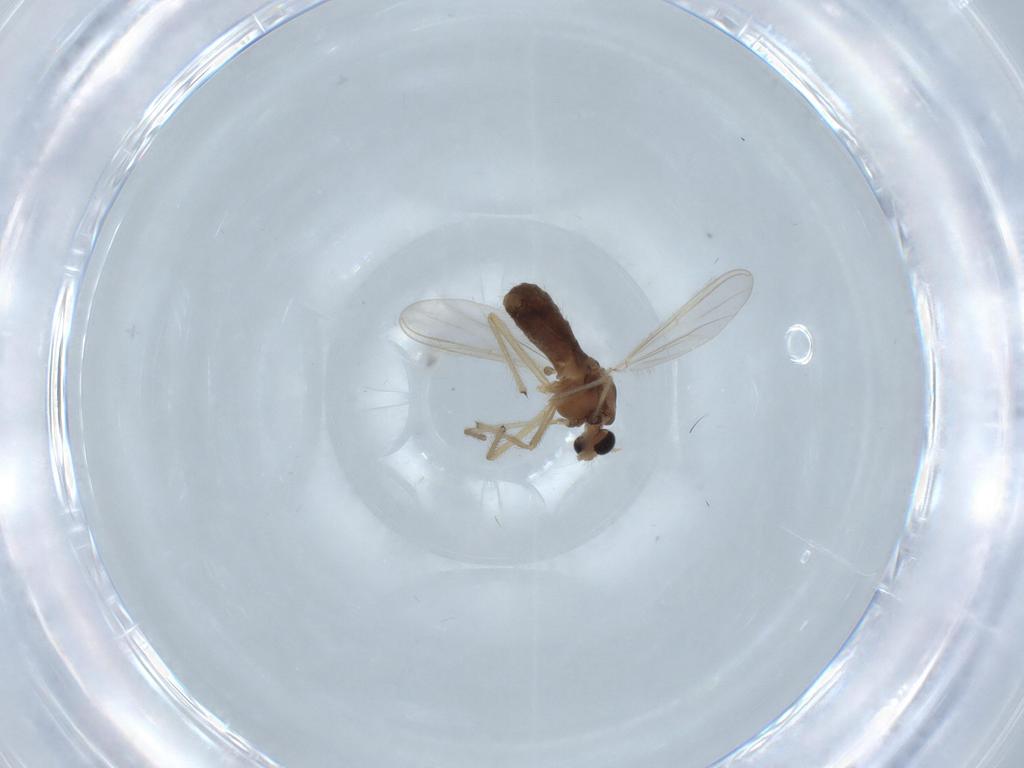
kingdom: Animalia
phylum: Arthropoda
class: Insecta
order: Diptera
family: Chironomidae
